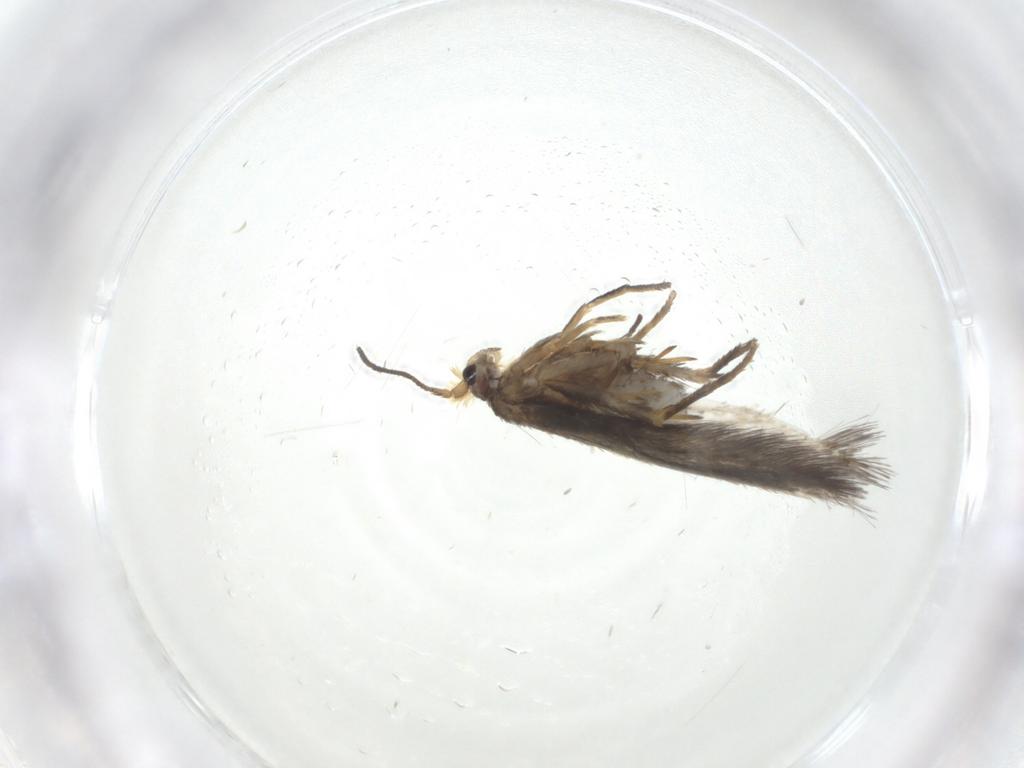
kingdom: Animalia
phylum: Arthropoda
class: Insecta
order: Lepidoptera
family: Nepticulidae
